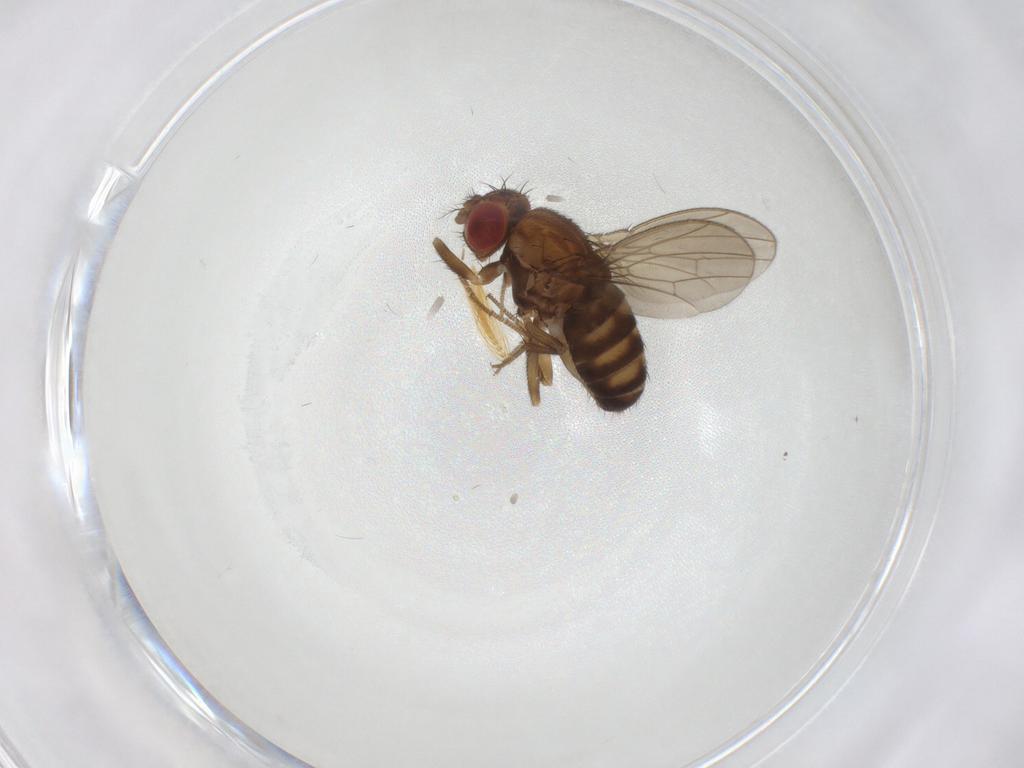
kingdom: Animalia
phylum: Arthropoda
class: Insecta
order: Diptera
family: Drosophilidae
